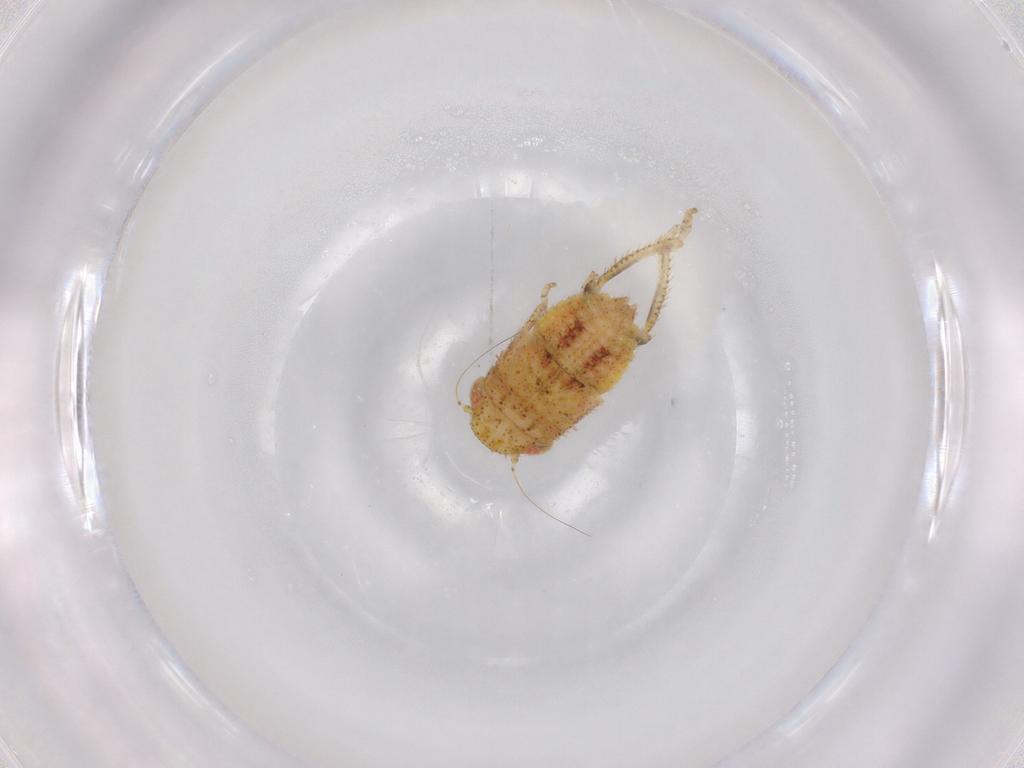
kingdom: Animalia
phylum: Arthropoda
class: Insecta
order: Hemiptera
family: Cicadellidae
